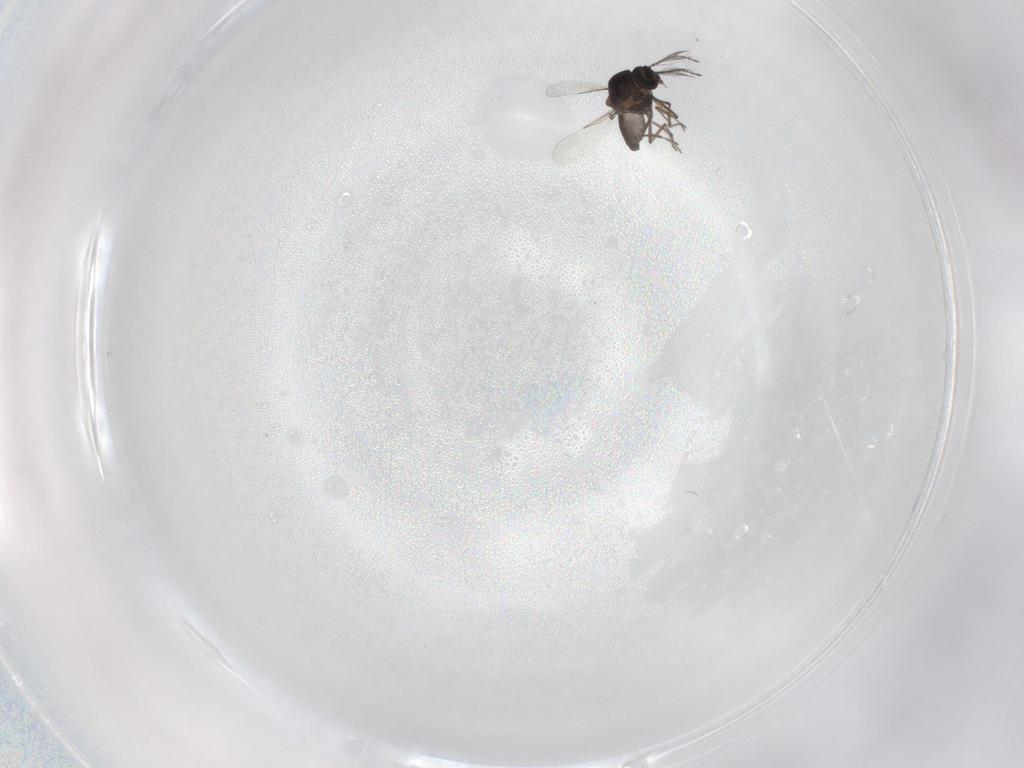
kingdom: Animalia
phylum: Arthropoda
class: Insecta
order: Diptera
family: Ceratopogonidae
